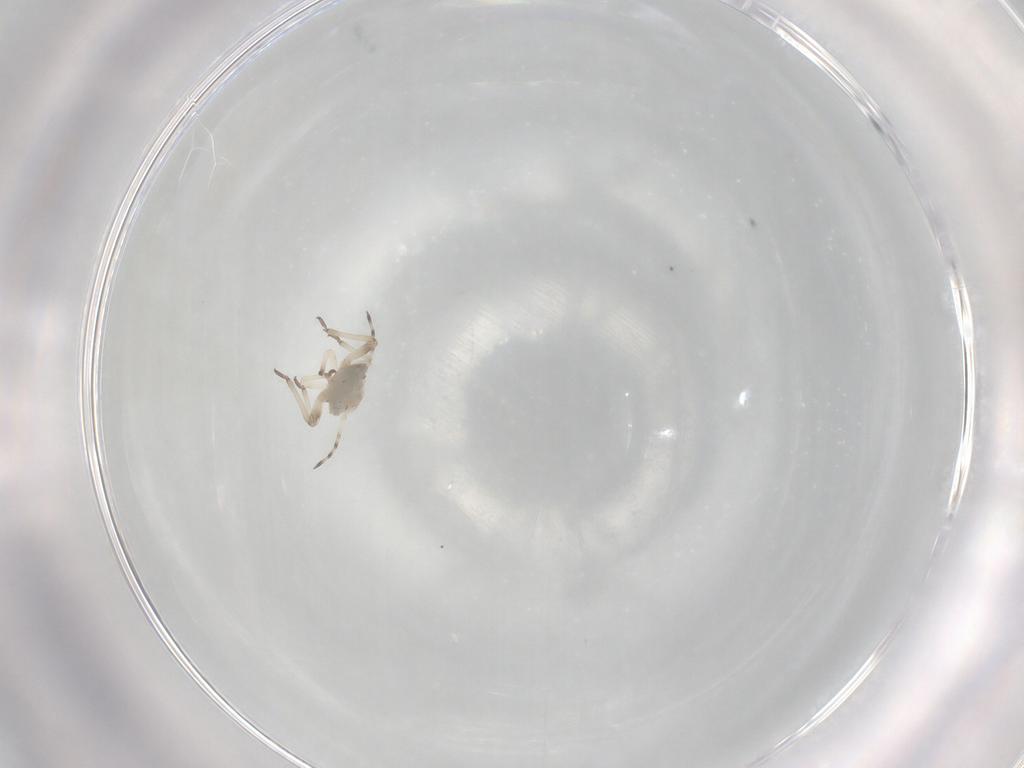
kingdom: Animalia
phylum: Arthropoda
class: Insecta
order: Hemiptera
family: Aphididae
